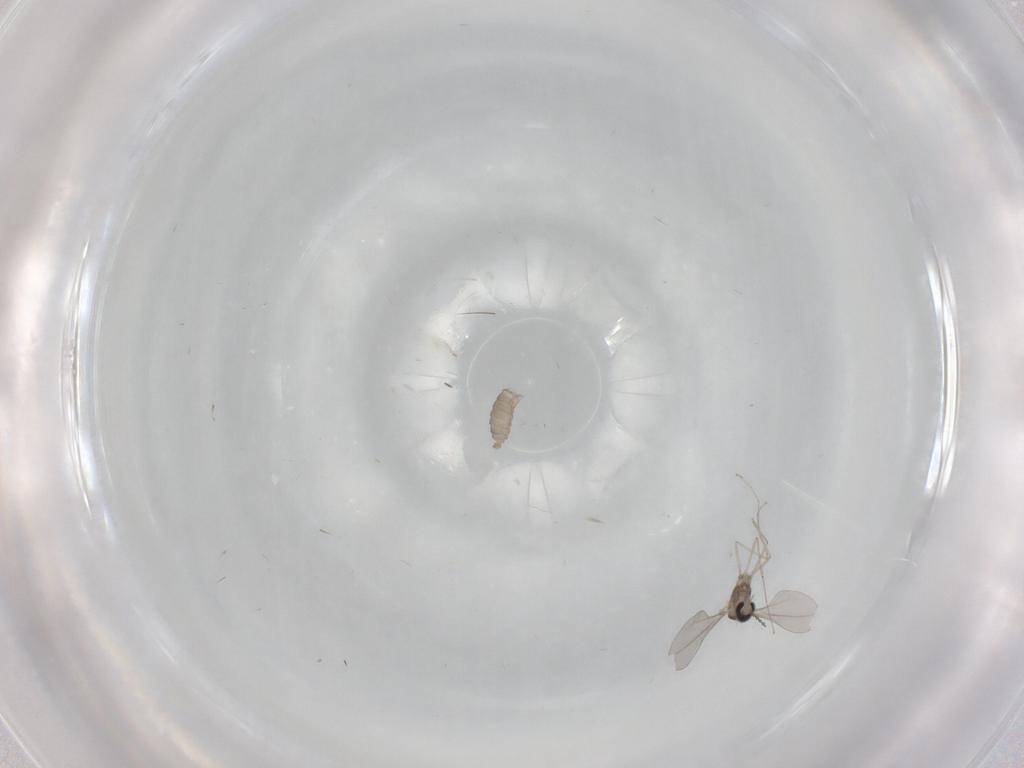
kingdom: Animalia
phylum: Arthropoda
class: Insecta
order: Diptera
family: Cecidomyiidae
